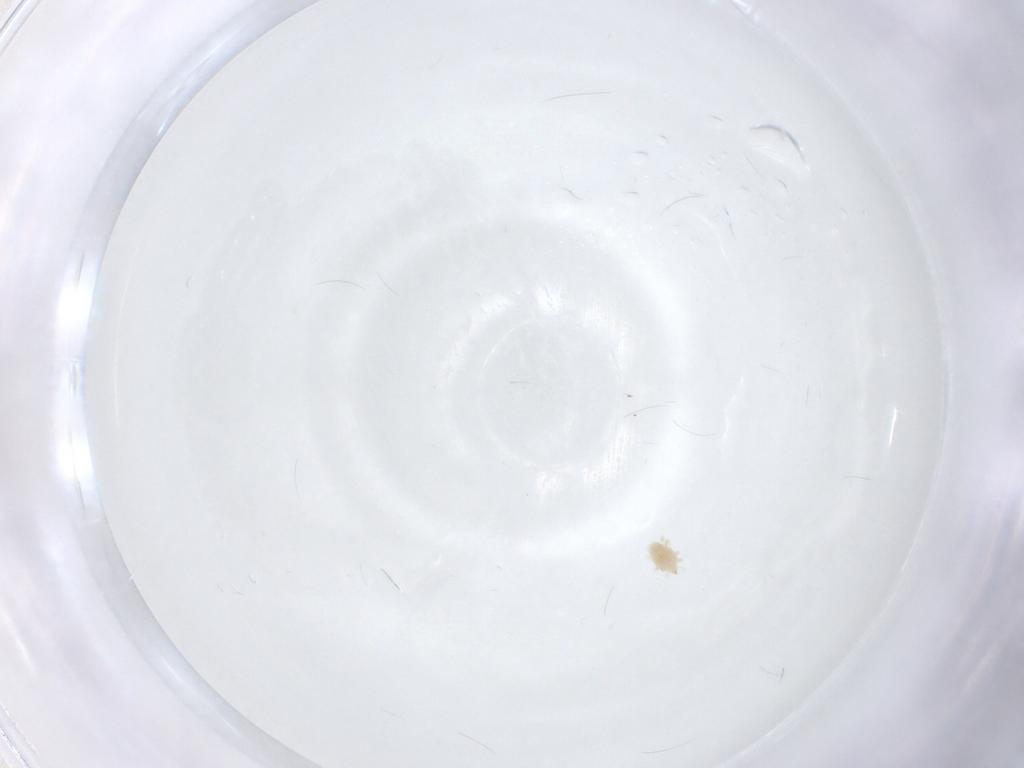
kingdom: Animalia
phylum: Arthropoda
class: Arachnida
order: Trombidiformes
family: Bdellidae
